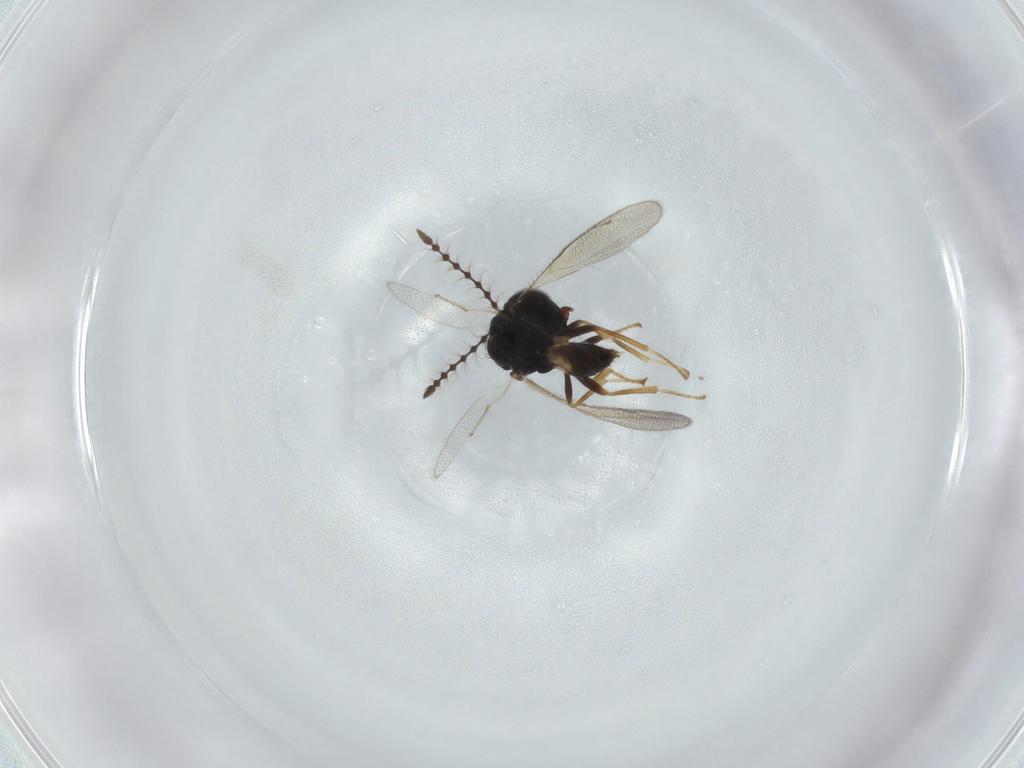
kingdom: Animalia
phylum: Arthropoda
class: Insecta
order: Hymenoptera
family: Pteromalidae
